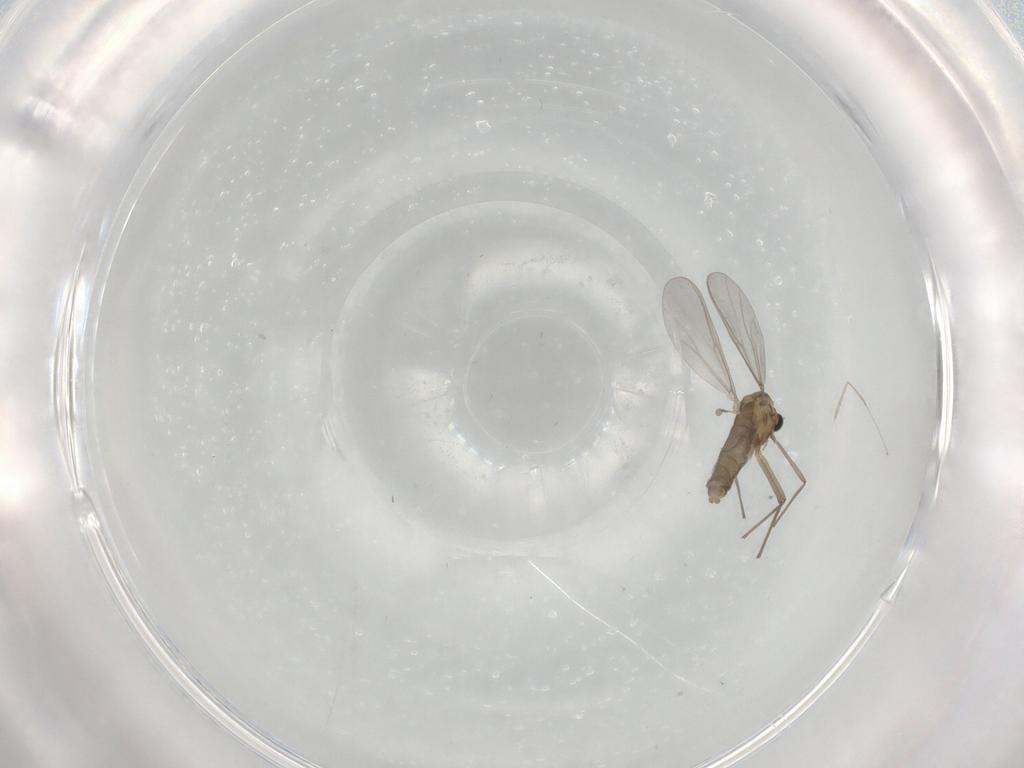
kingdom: Animalia
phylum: Arthropoda
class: Insecta
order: Diptera
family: Cecidomyiidae
